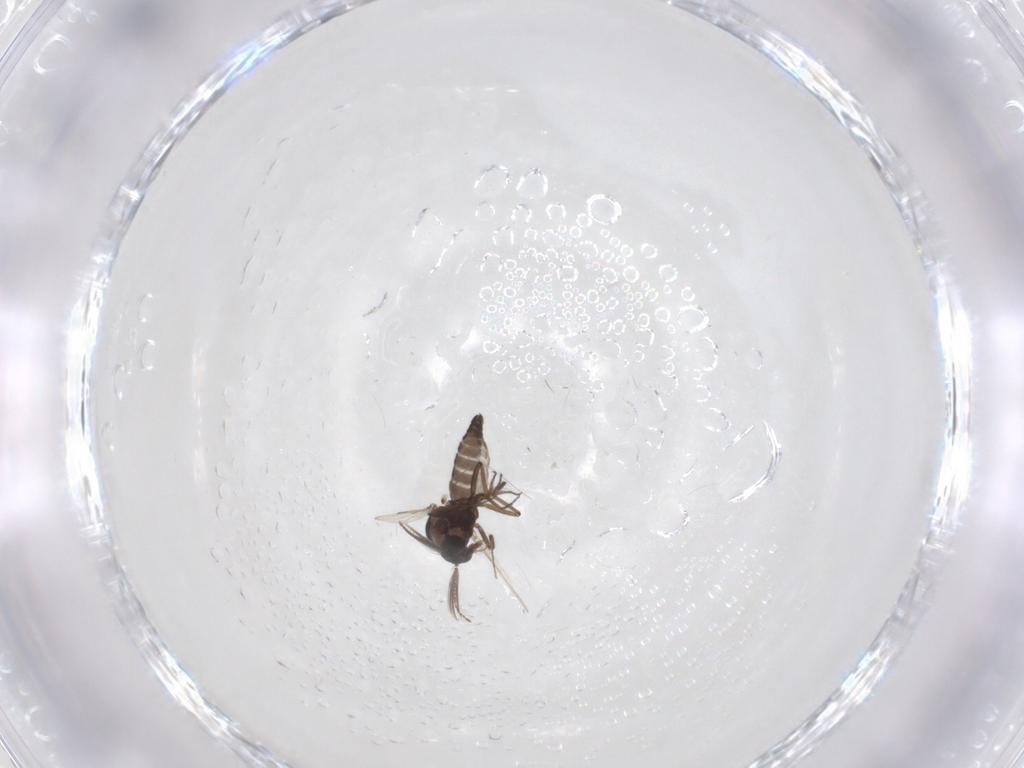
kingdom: Animalia
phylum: Arthropoda
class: Insecta
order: Diptera
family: Ceratopogonidae
